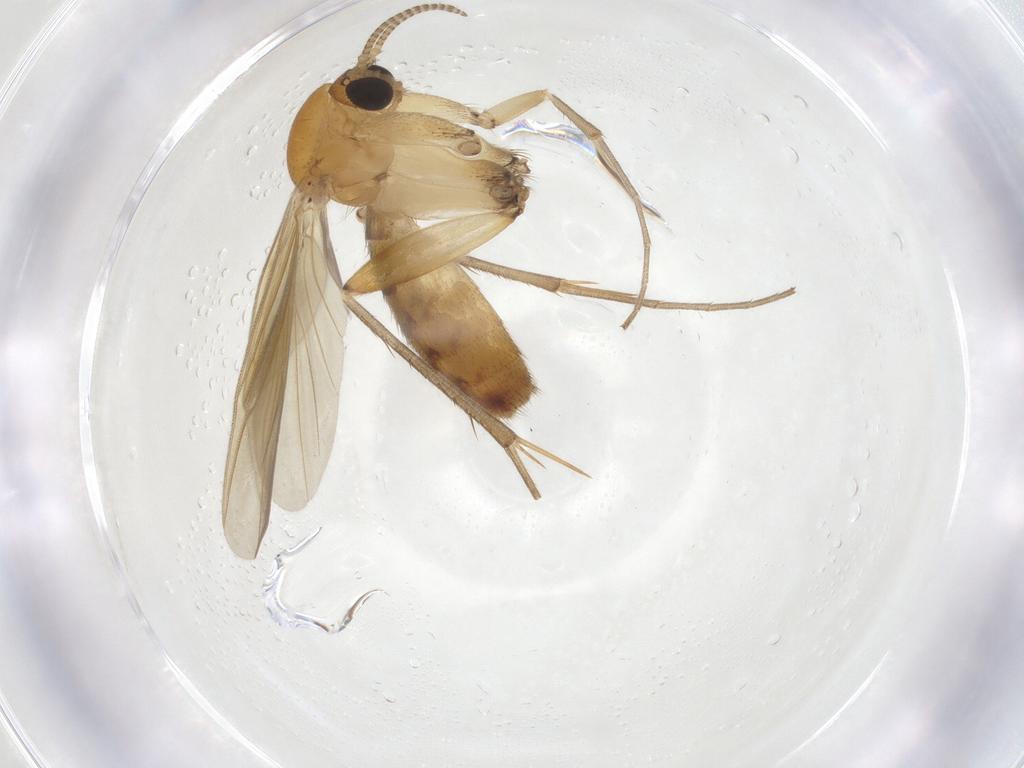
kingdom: Animalia
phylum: Arthropoda
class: Insecta
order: Diptera
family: Mycetophilidae
